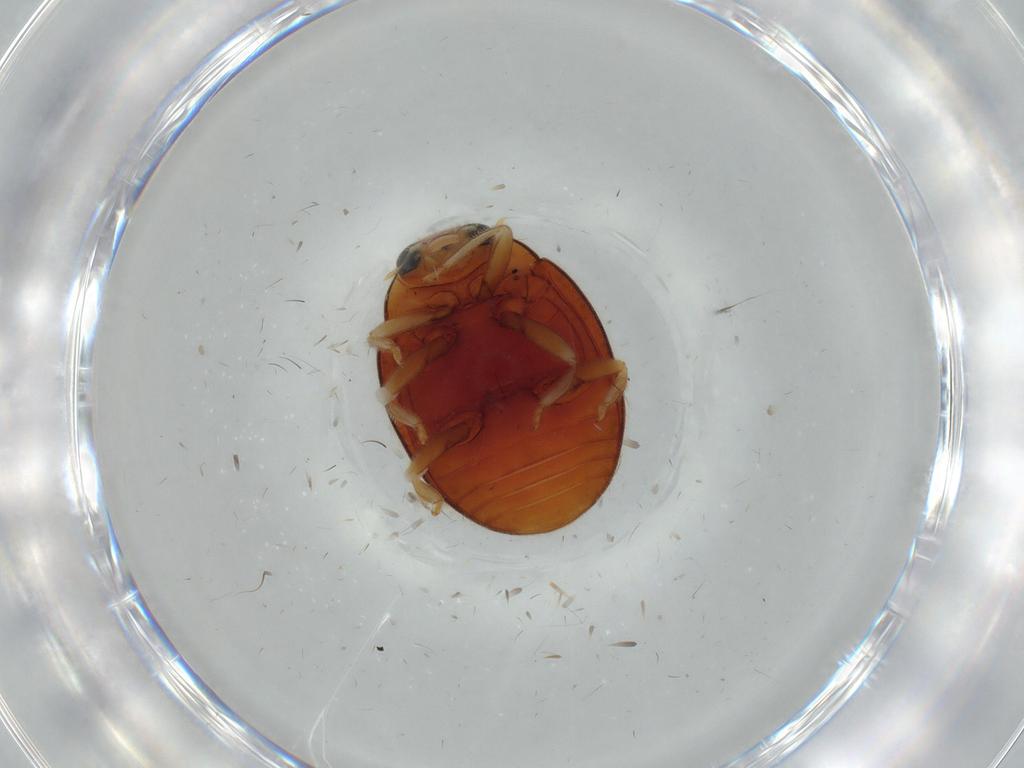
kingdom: Animalia
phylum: Arthropoda
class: Insecta
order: Coleoptera
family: Coccinellidae
